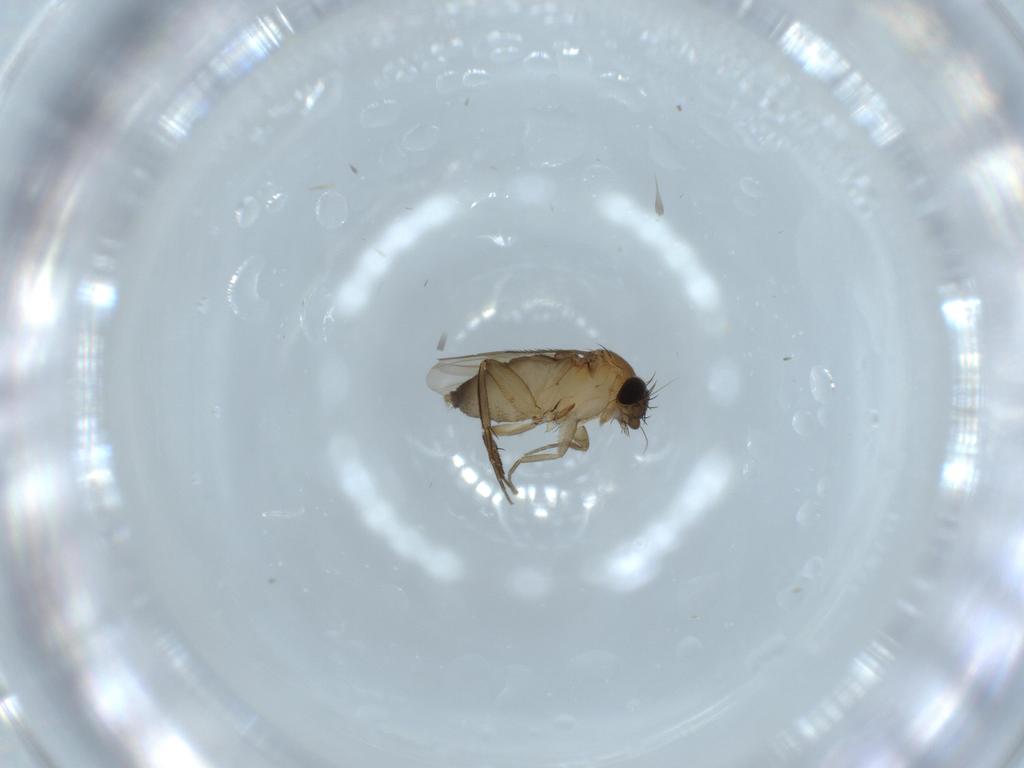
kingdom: Animalia
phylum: Arthropoda
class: Insecta
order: Diptera
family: Phoridae
